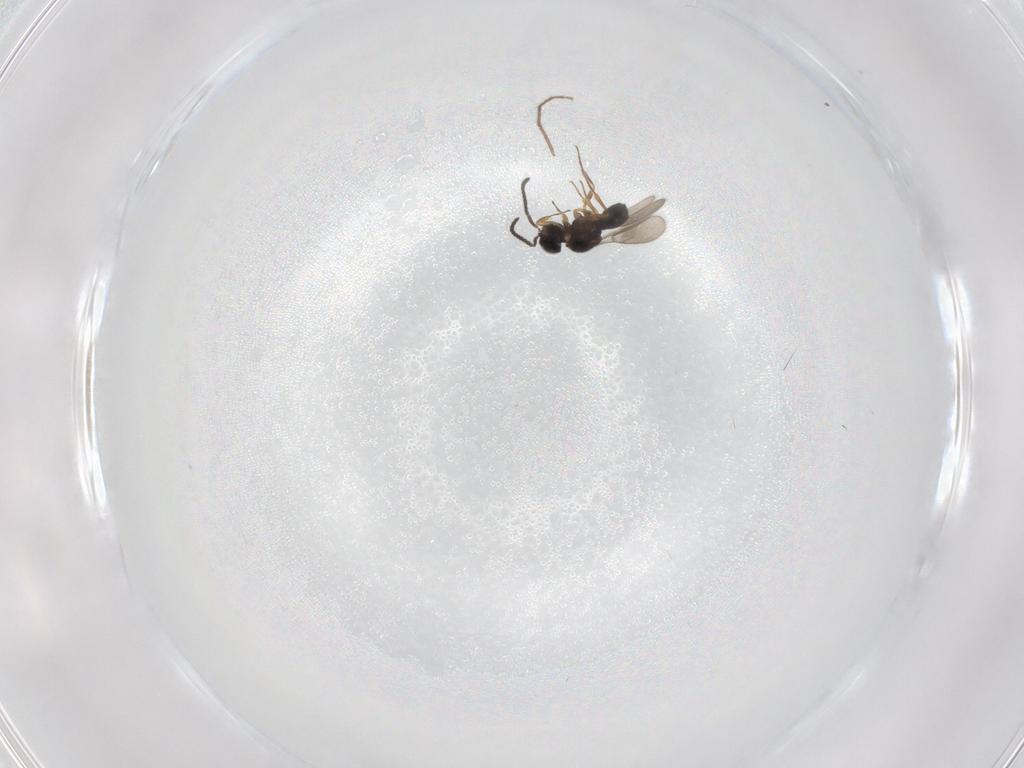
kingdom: Animalia
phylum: Arthropoda
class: Insecta
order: Hymenoptera
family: Scelionidae
